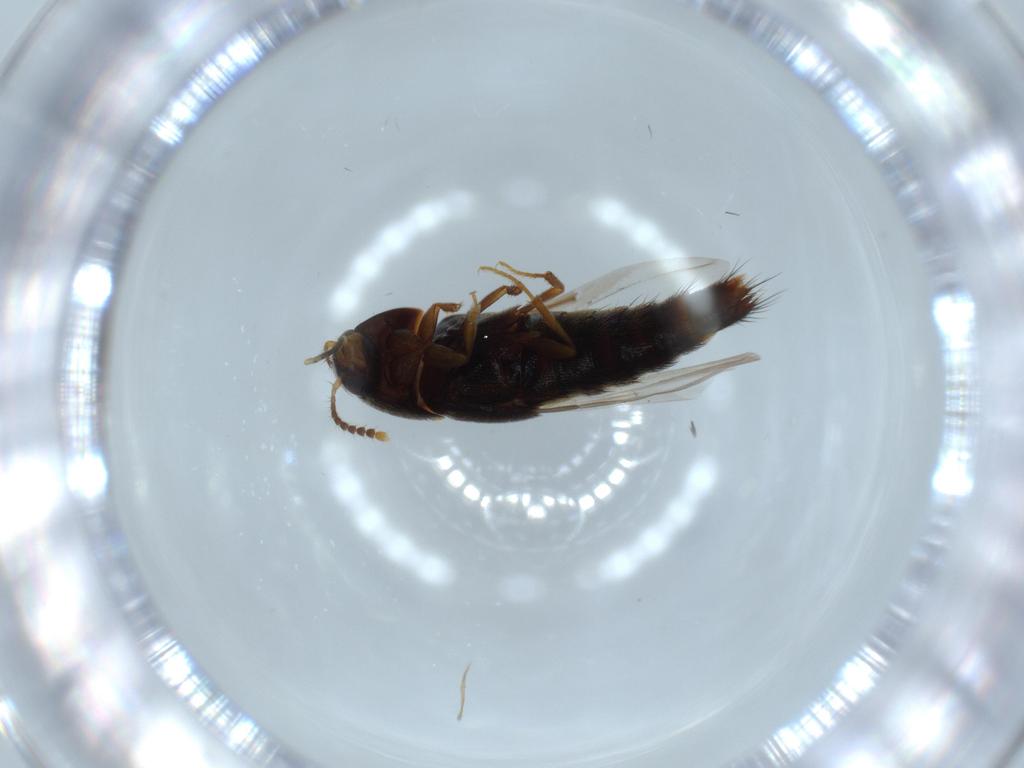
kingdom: Animalia
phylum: Arthropoda
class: Insecta
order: Coleoptera
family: Staphylinidae
